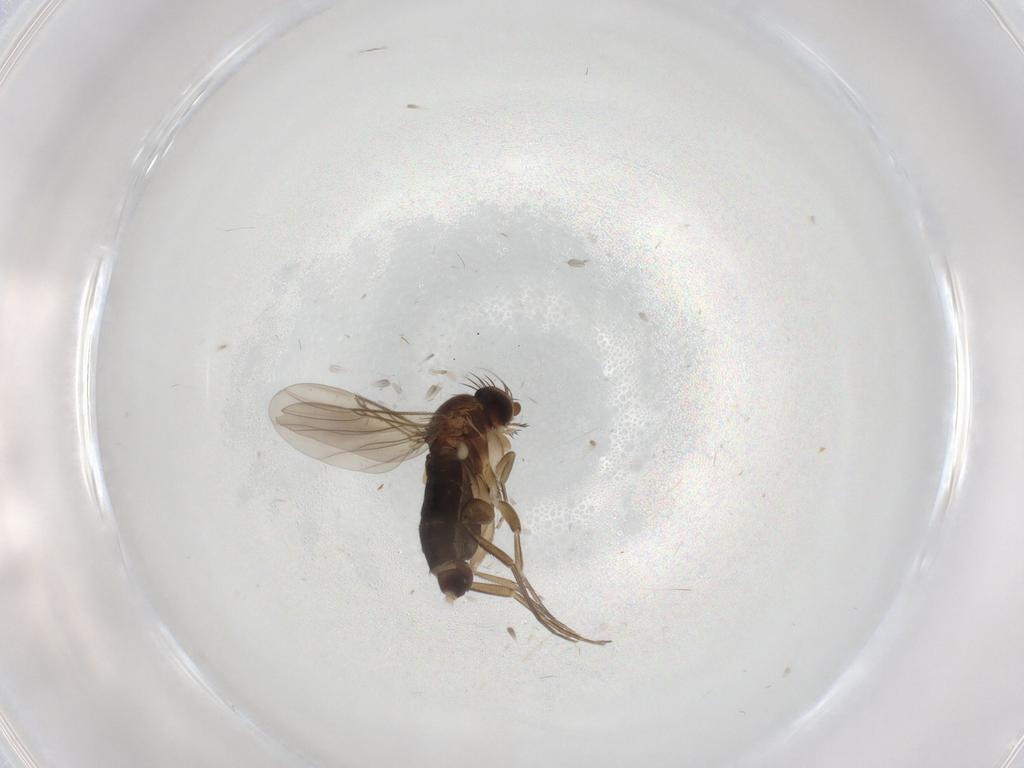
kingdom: Animalia
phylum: Arthropoda
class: Insecta
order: Diptera
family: Phoridae
